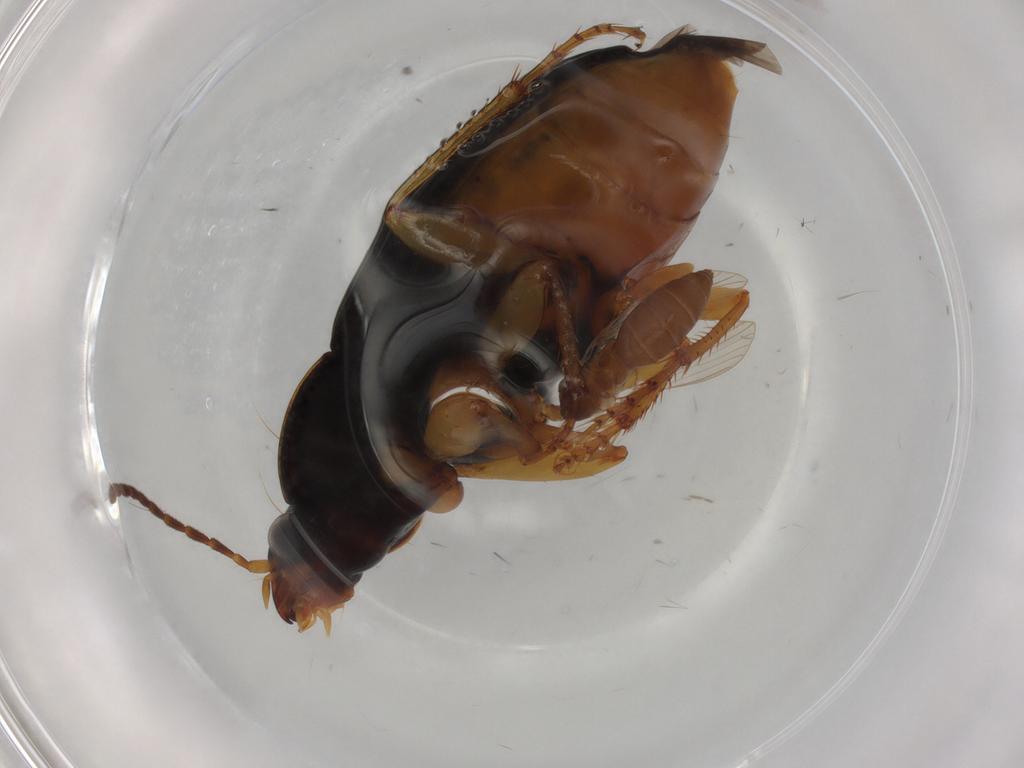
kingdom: Animalia
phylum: Arthropoda
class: Insecta
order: Coleoptera
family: Carabidae
